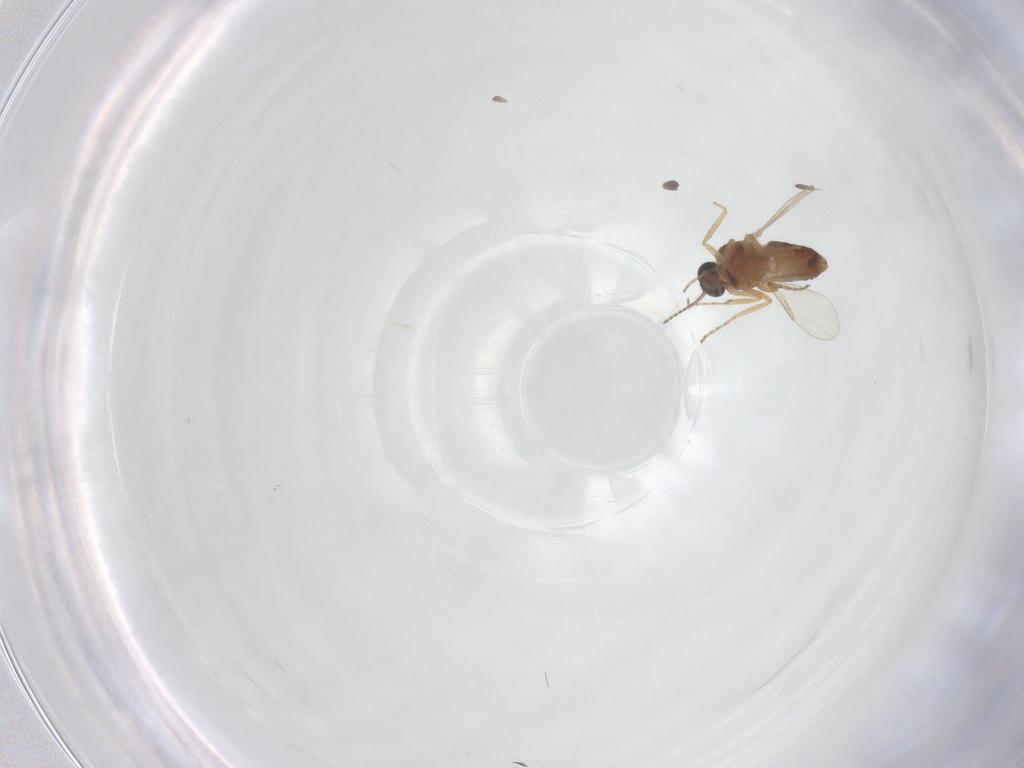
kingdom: Animalia
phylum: Arthropoda
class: Insecta
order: Diptera
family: Ceratopogonidae
